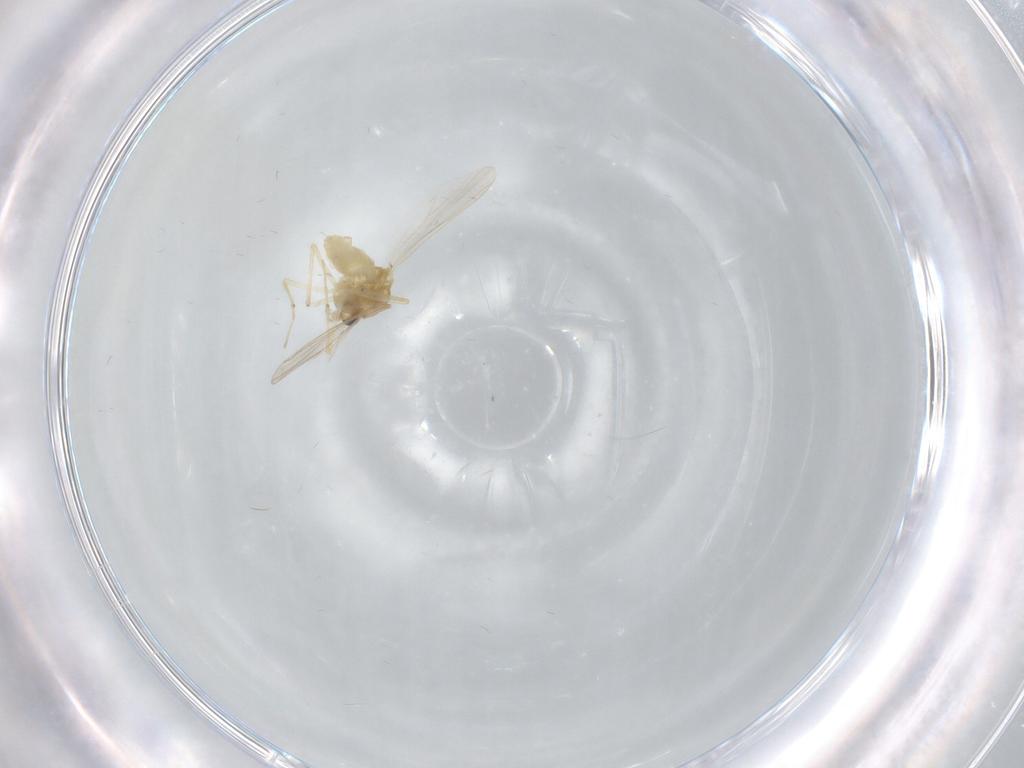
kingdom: Animalia
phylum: Arthropoda
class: Insecta
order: Diptera
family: Chironomidae
